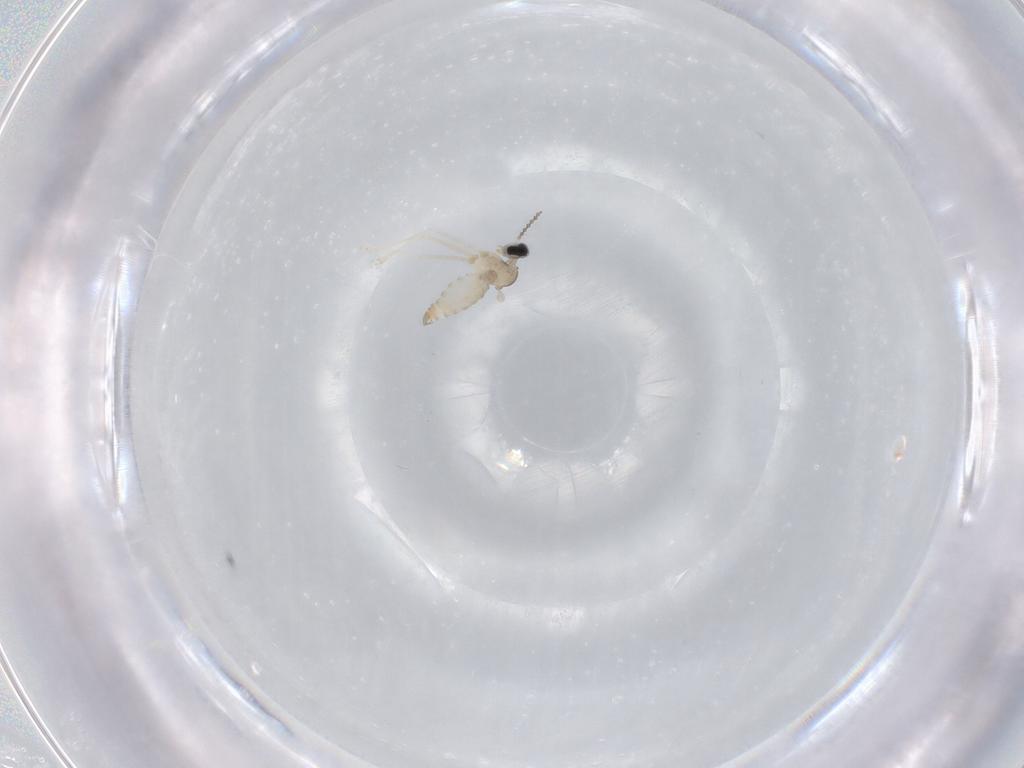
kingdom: Animalia
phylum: Arthropoda
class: Insecta
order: Diptera
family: Cecidomyiidae
